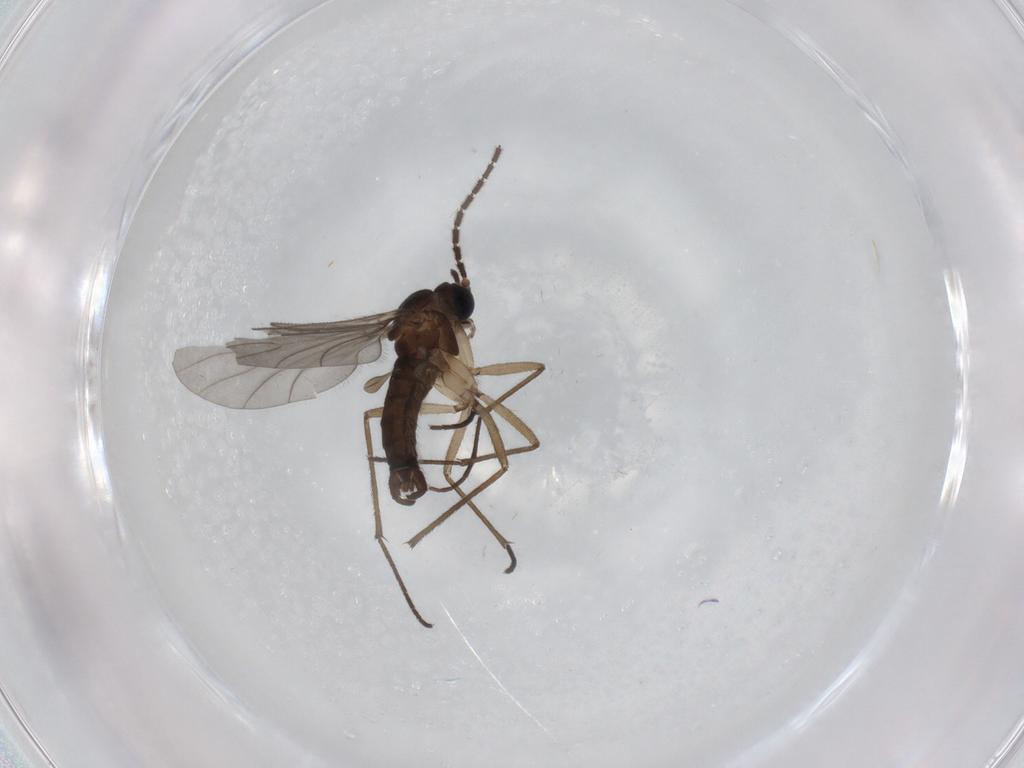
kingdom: Animalia
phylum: Arthropoda
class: Insecta
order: Diptera
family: Sciaridae
